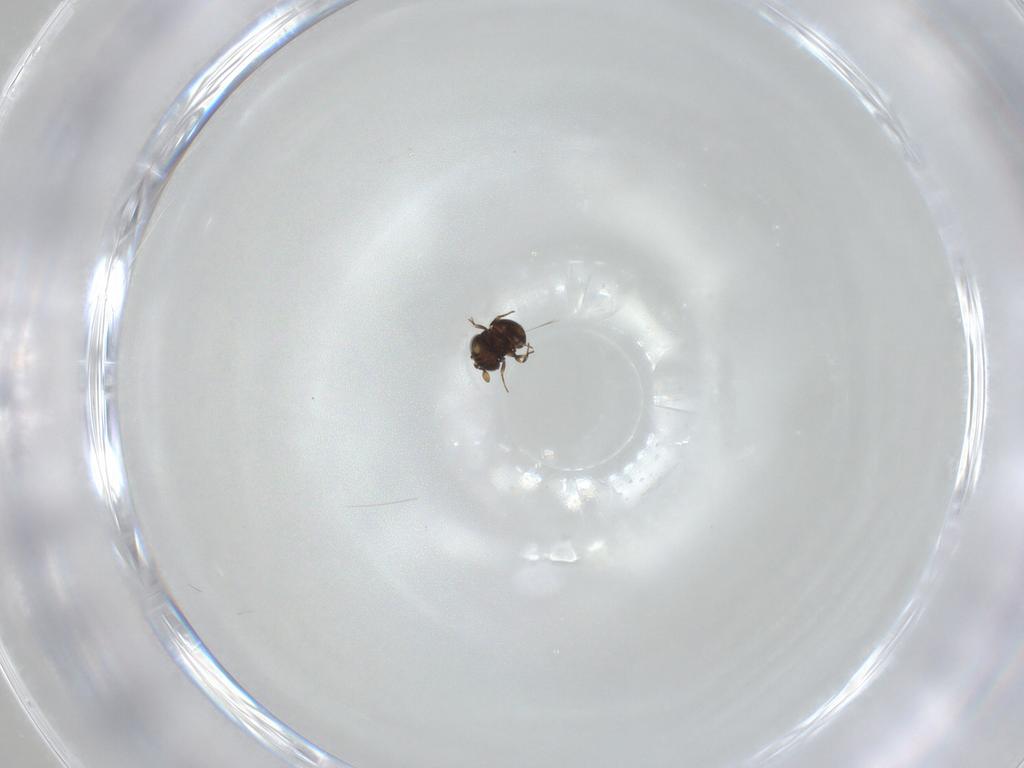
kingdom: Animalia
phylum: Arthropoda
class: Insecta
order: Hymenoptera
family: Scelionidae
